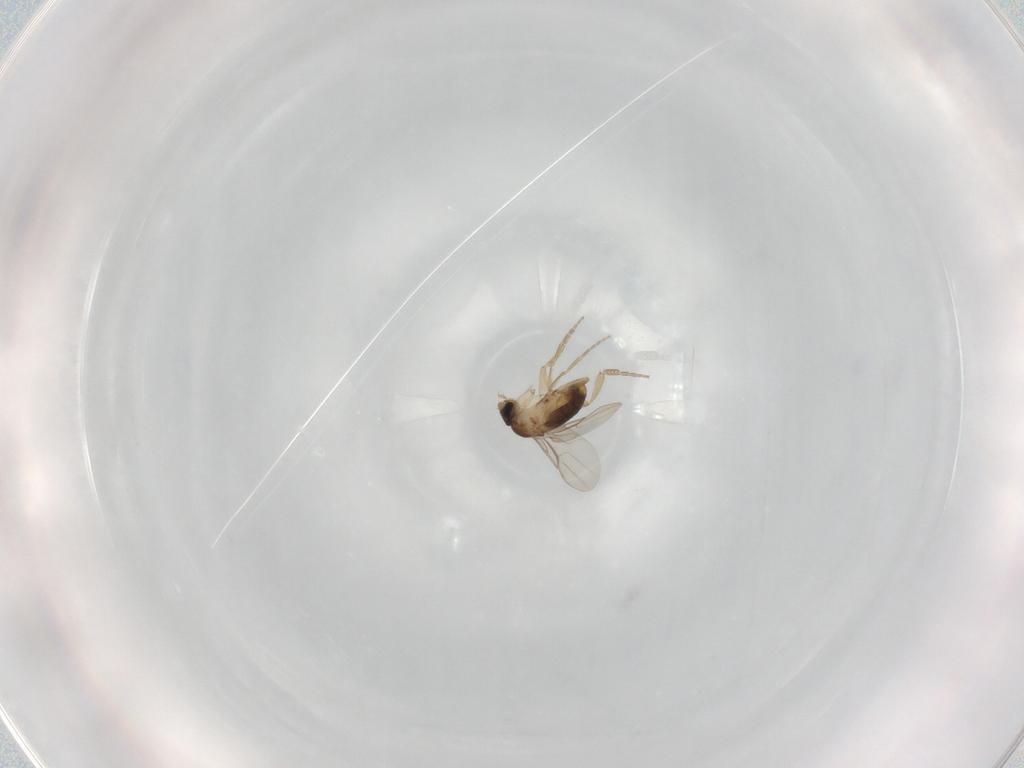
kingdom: Animalia
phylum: Arthropoda
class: Insecta
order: Diptera
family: Phoridae
